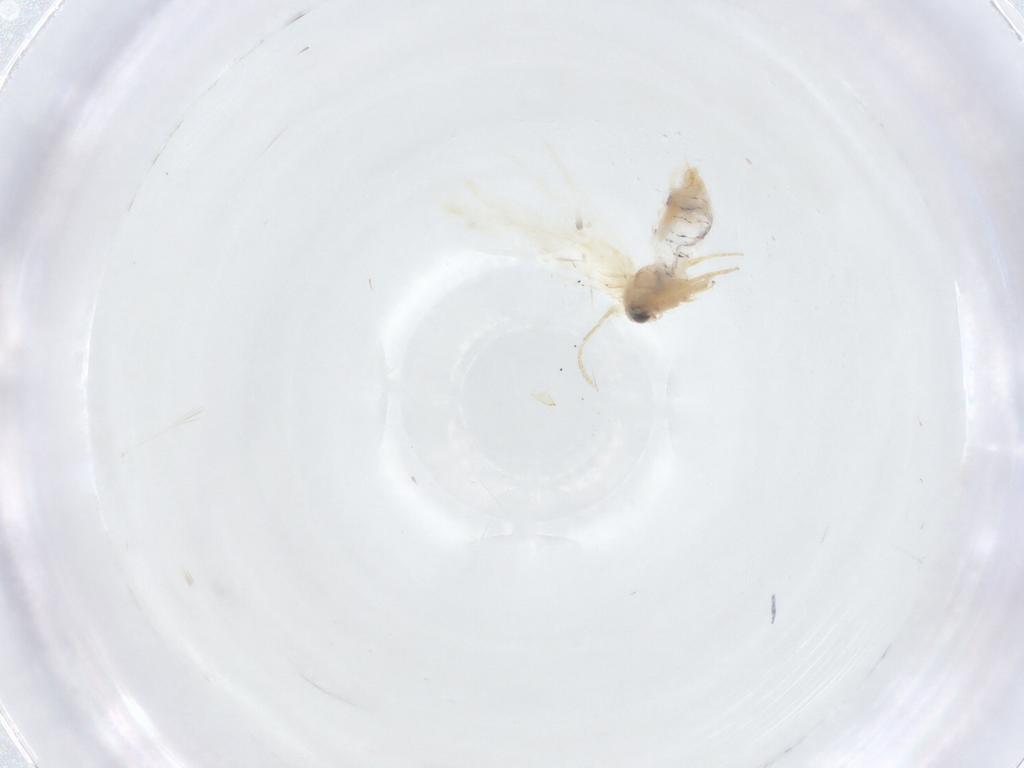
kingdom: Animalia
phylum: Arthropoda
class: Insecta
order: Lepidoptera
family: Nepticulidae
